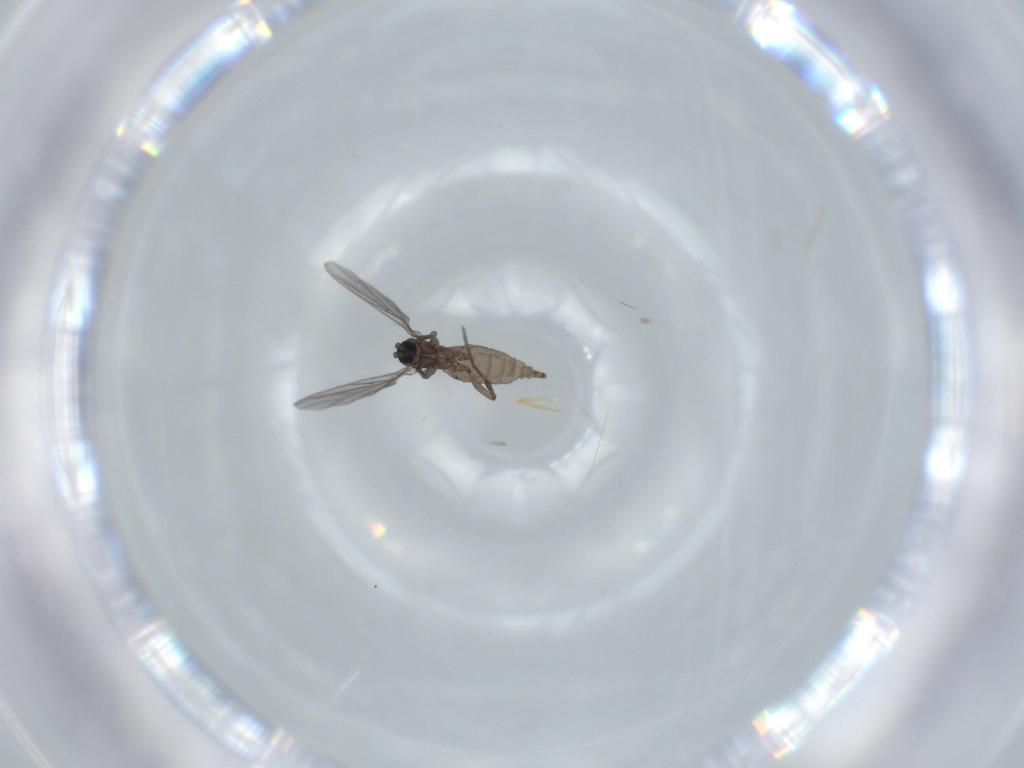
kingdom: Animalia
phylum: Arthropoda
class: Insecta
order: Diptera
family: Sciaridae
